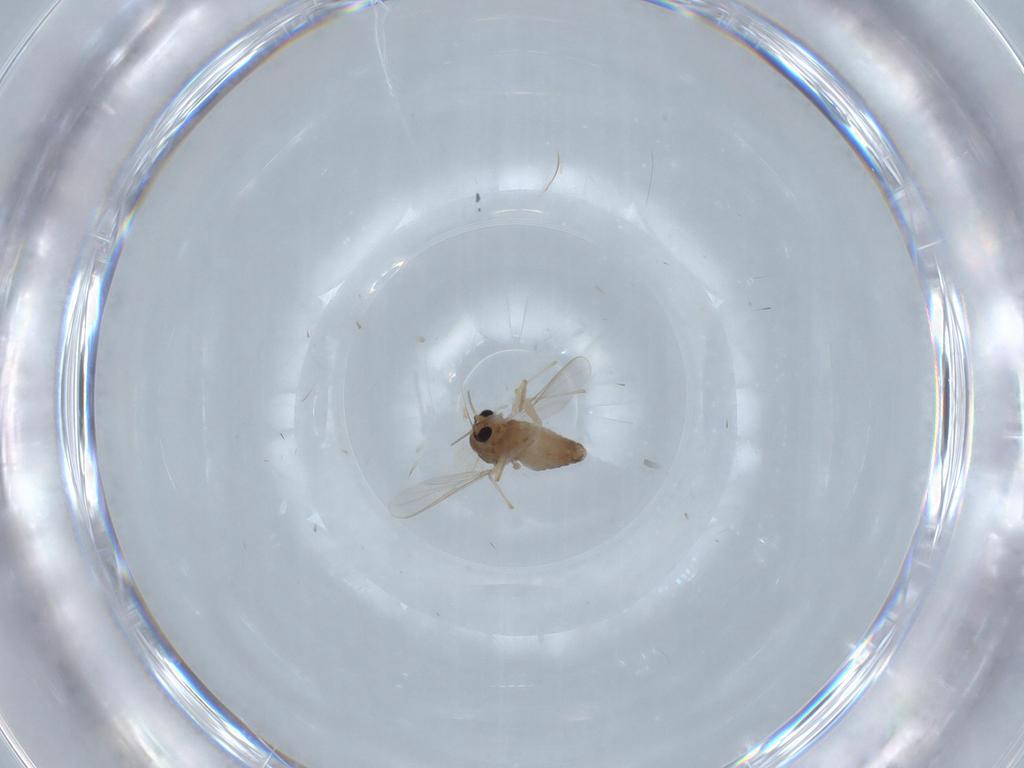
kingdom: Animalia
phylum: Arthropoda
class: Insecta
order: Diptera
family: Chironomidae
